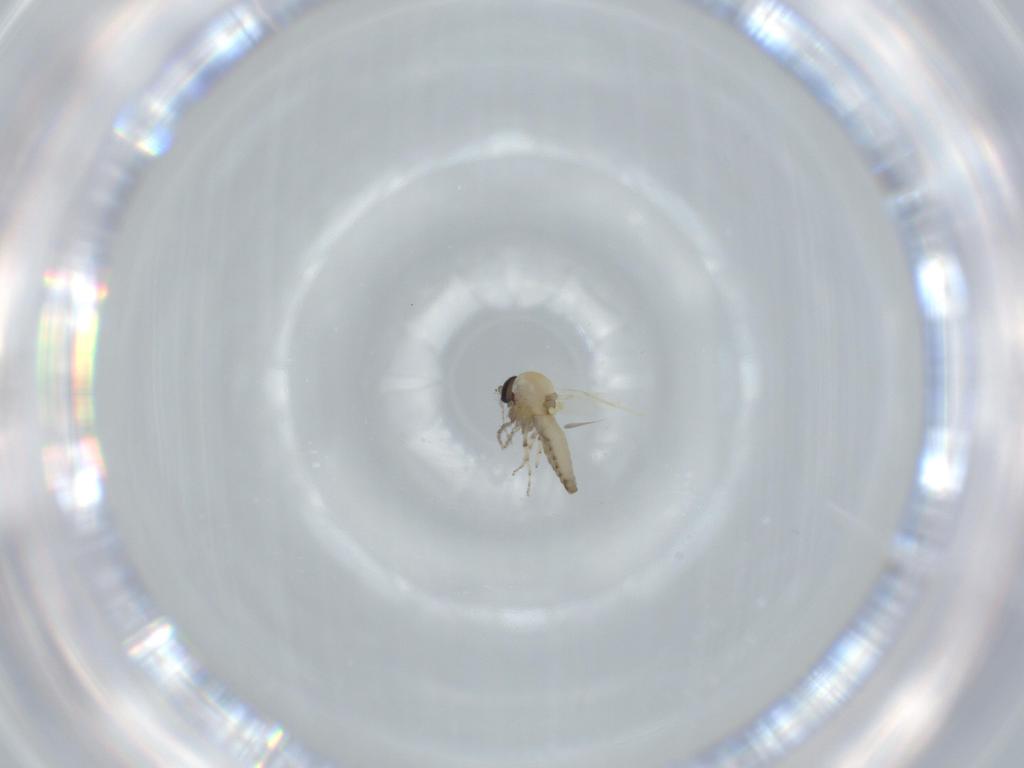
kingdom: Animalia
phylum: Arthropoda
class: Insecta
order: Diptera
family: Ceratopogonidae
